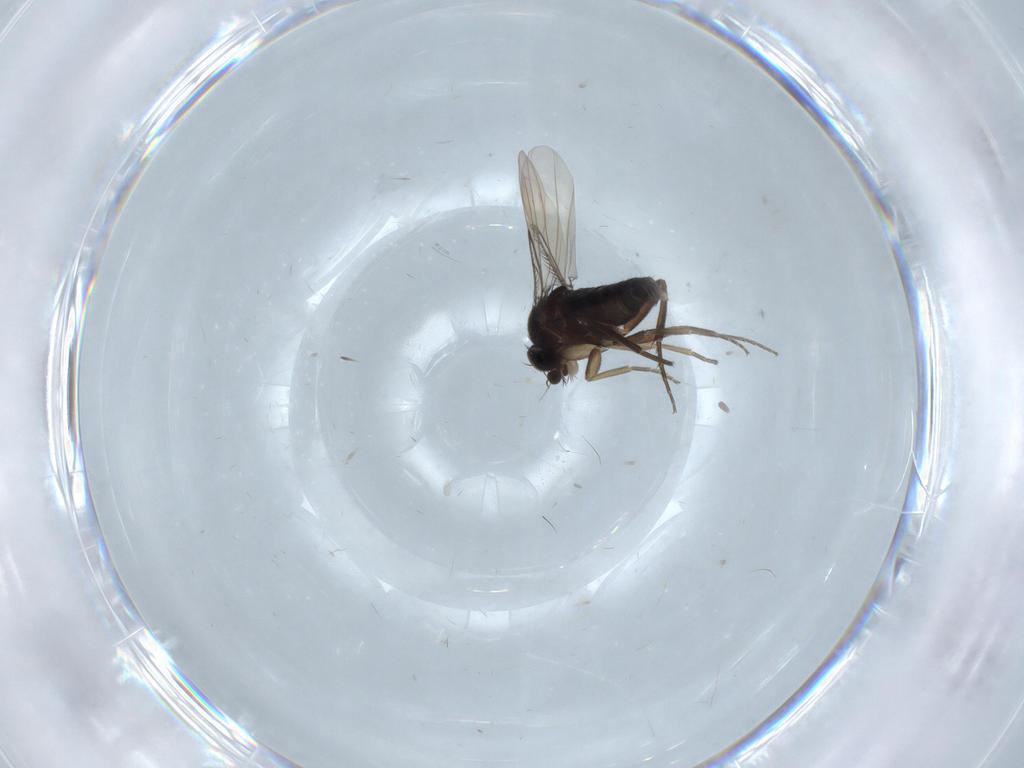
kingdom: Animalia
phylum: Arthropoda
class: Insecta
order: Diptera
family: Phoridae
